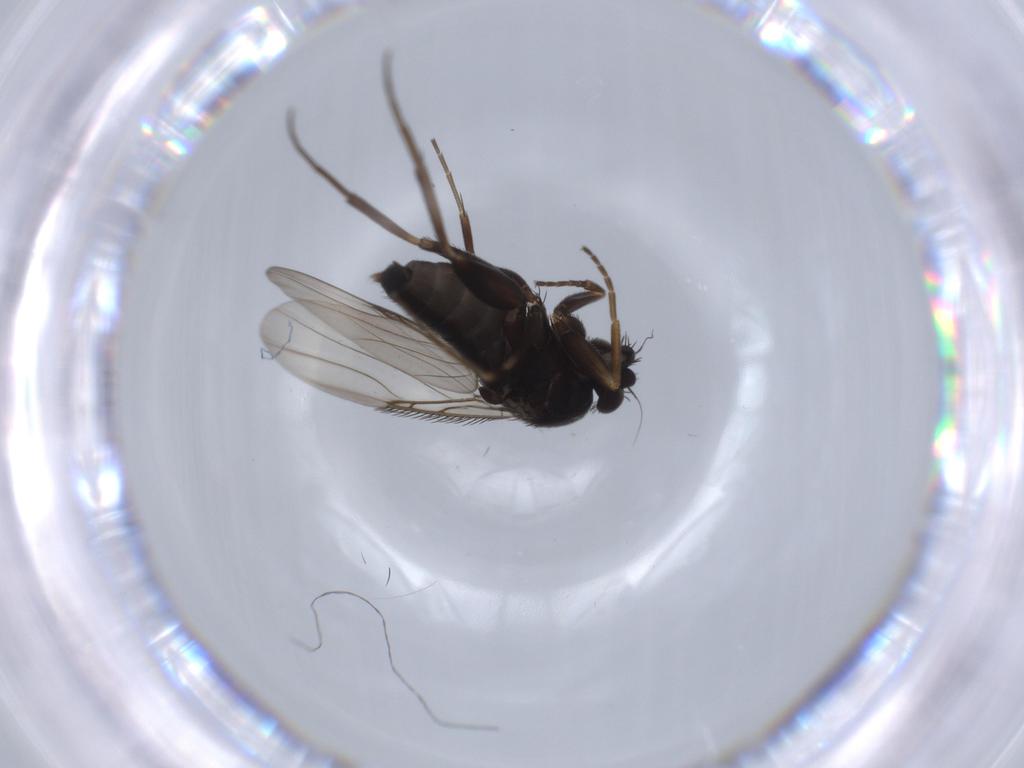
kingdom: Animalia
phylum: Arthropoda
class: Insecta
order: Diptera
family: Phoridae
